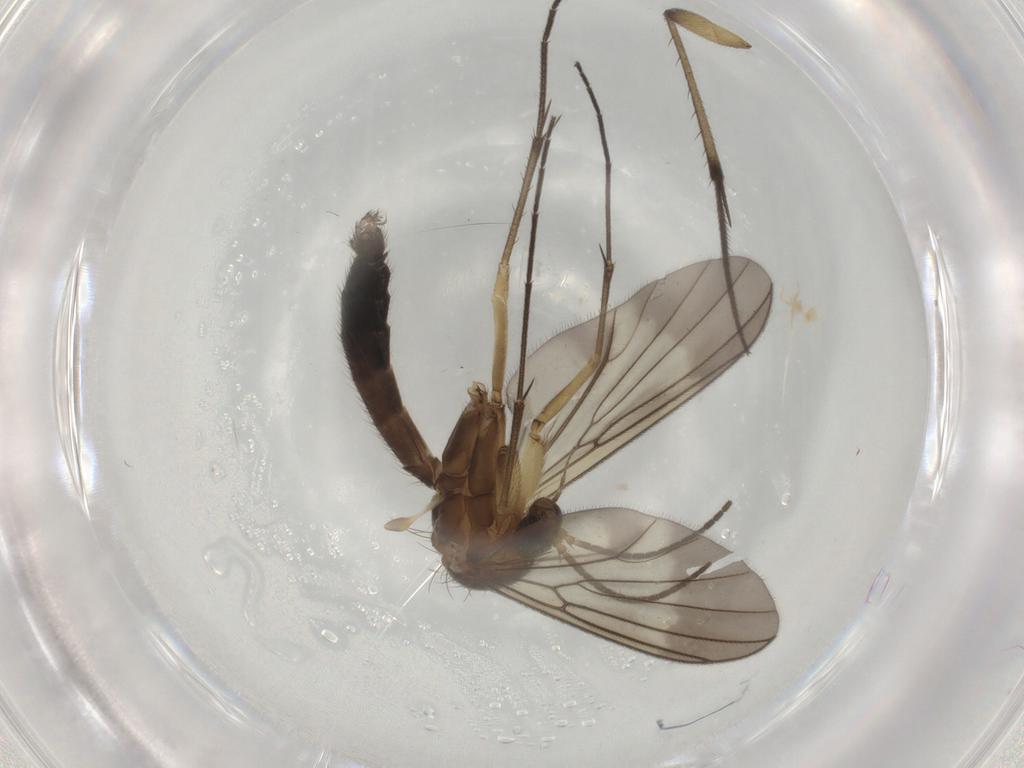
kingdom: Animalia
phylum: Arthropoda
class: Insecta
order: Diptera
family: Mycetophilidae
